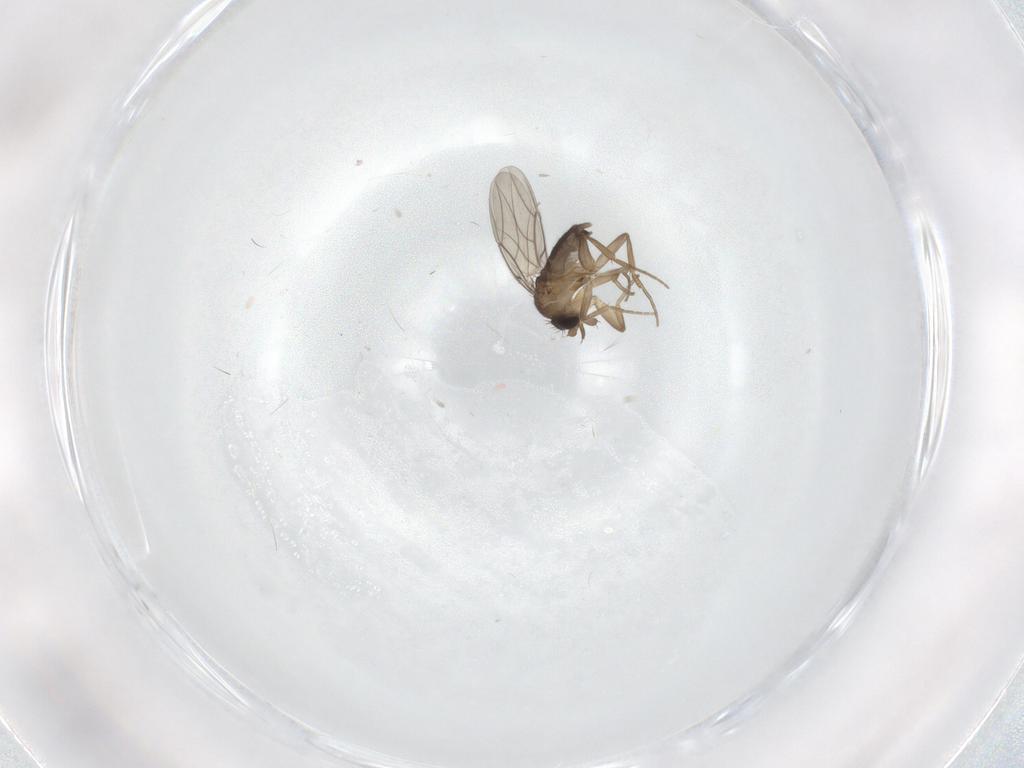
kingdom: Animalia
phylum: Arthropoda
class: Insecta
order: Diptera
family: Phoridae
